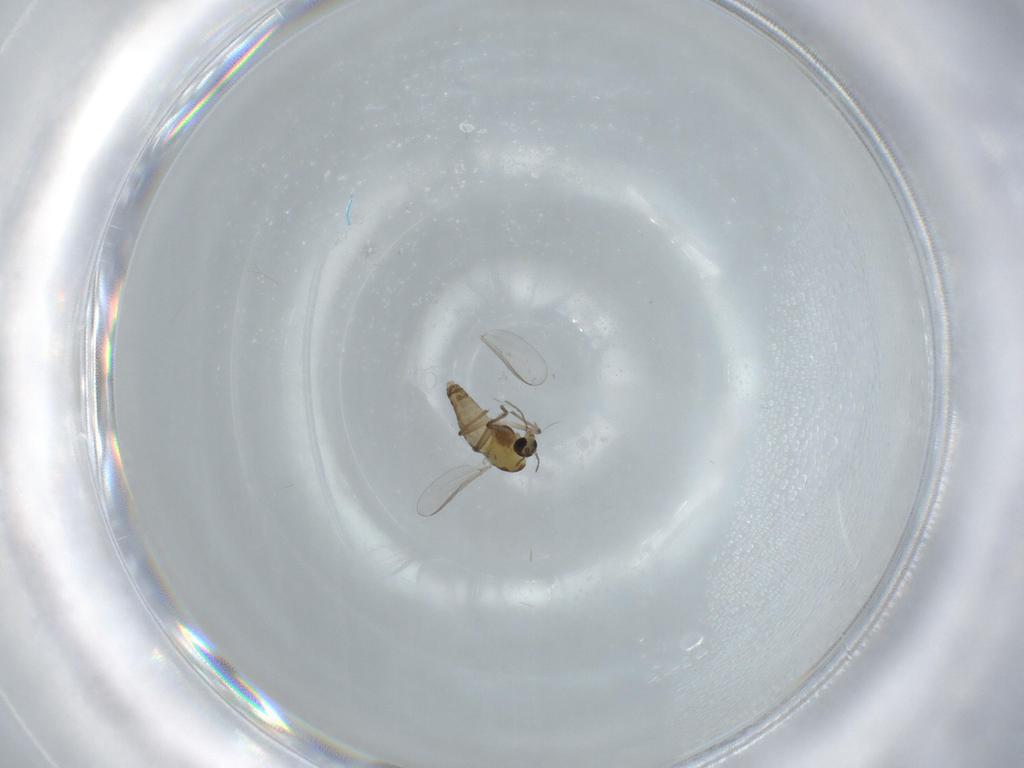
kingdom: Animalia
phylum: Arthropoda
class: Insecta
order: Diptera
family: Chironomidae
